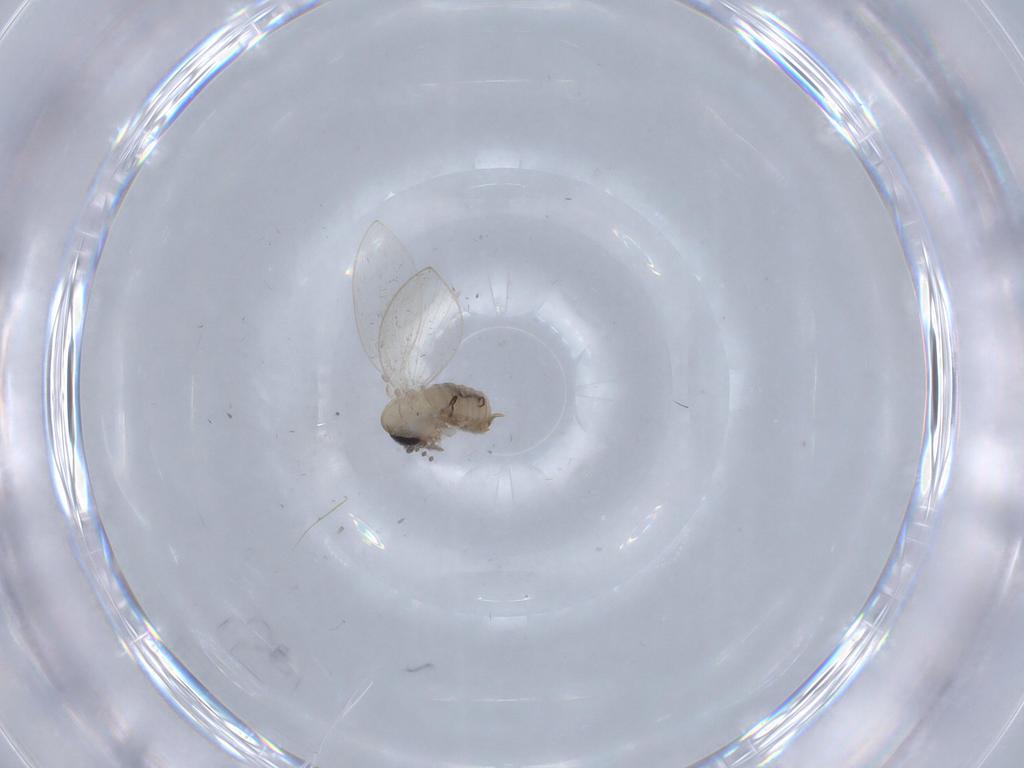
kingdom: Animalia
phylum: Arthropoda
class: Insecta
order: Diptera
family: Psychodidae
